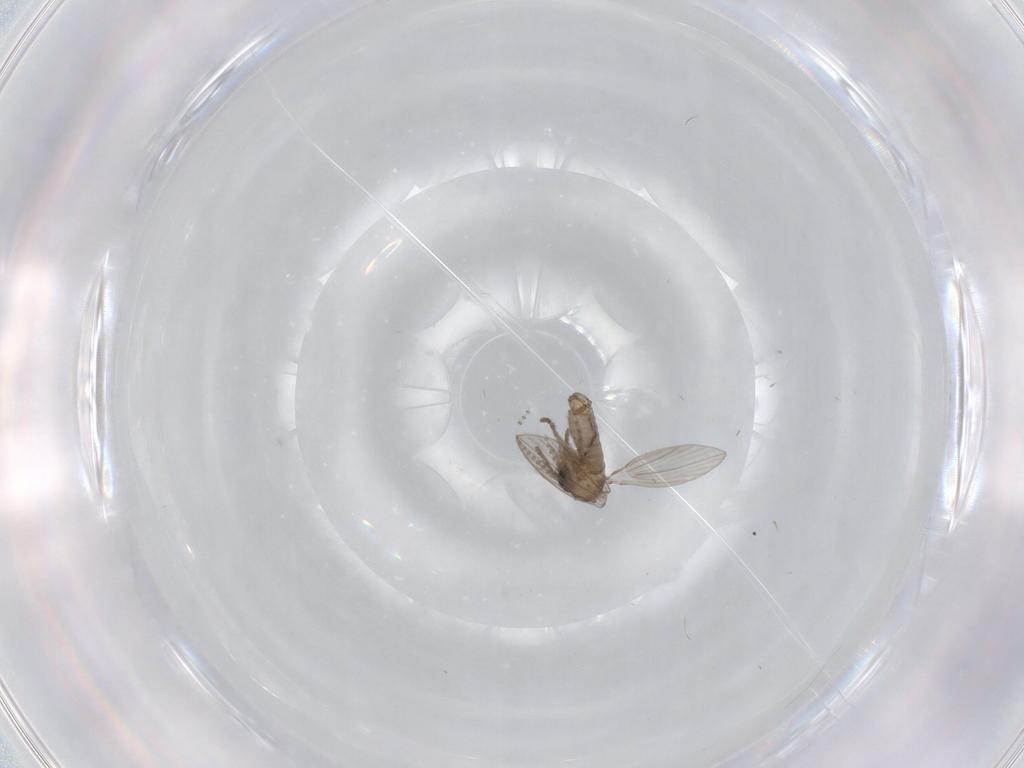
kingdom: Animalia
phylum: Arthropoda
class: Insecta
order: Diptera
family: Psychodidae
